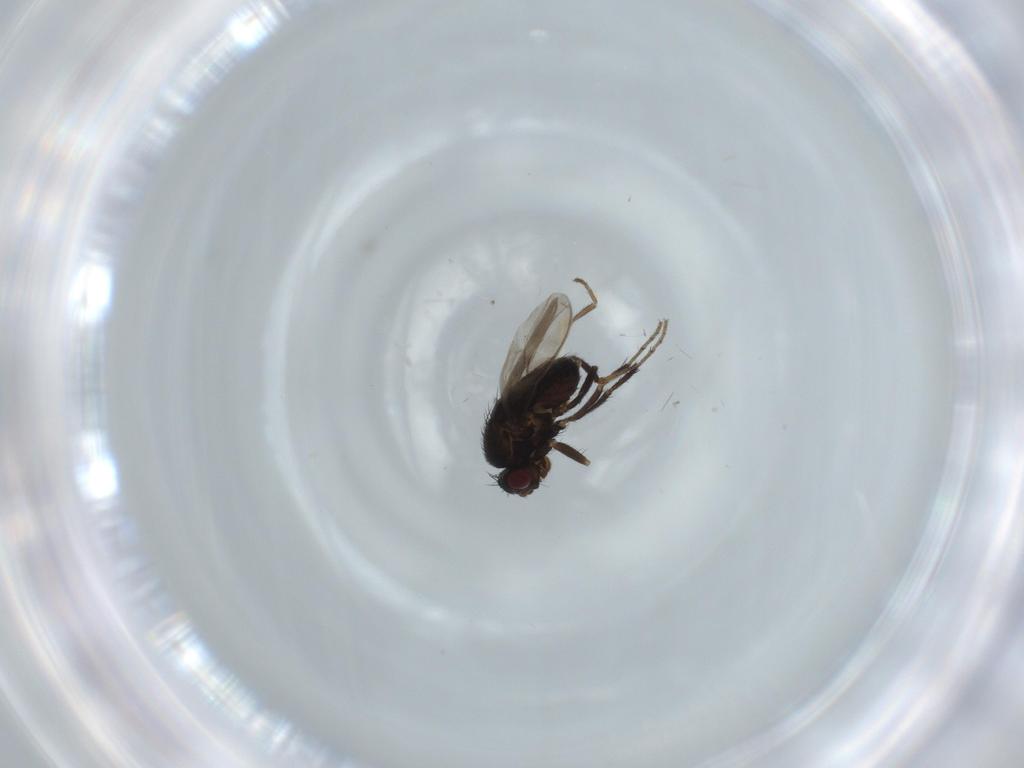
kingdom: Animalia
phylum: Arthropoda
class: Insecta
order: Diptera
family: Sphaeroceridae
